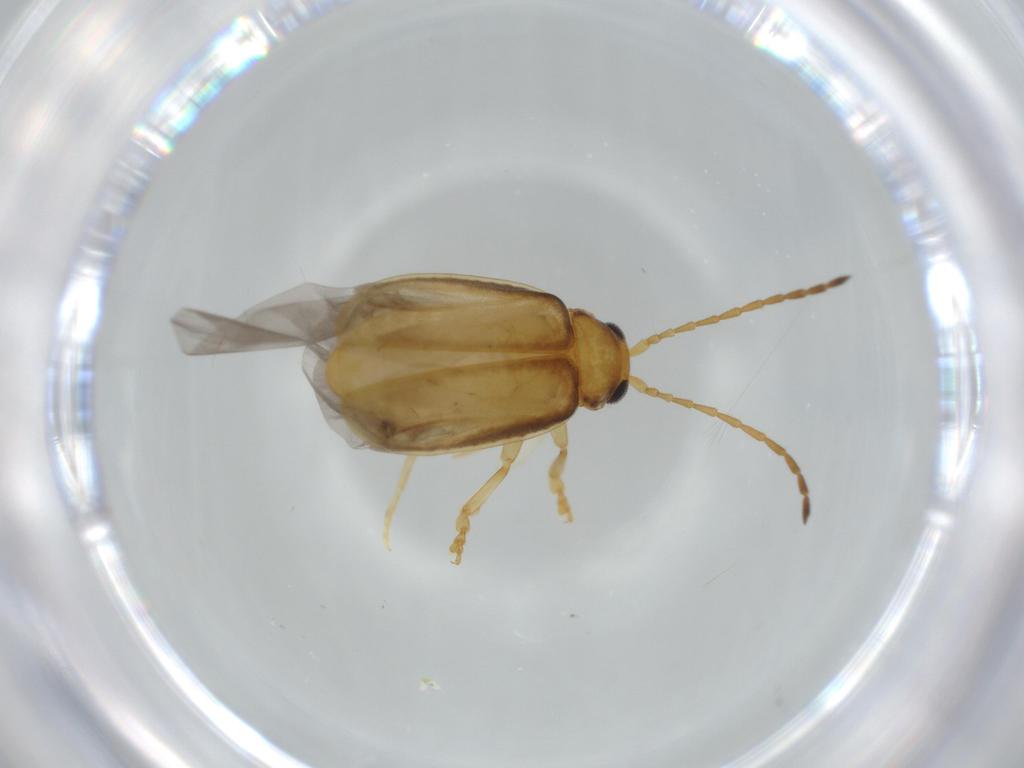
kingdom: Animalia
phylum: Arthropoda
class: Insecta
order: Coleoptera
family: Chrysomelidae
